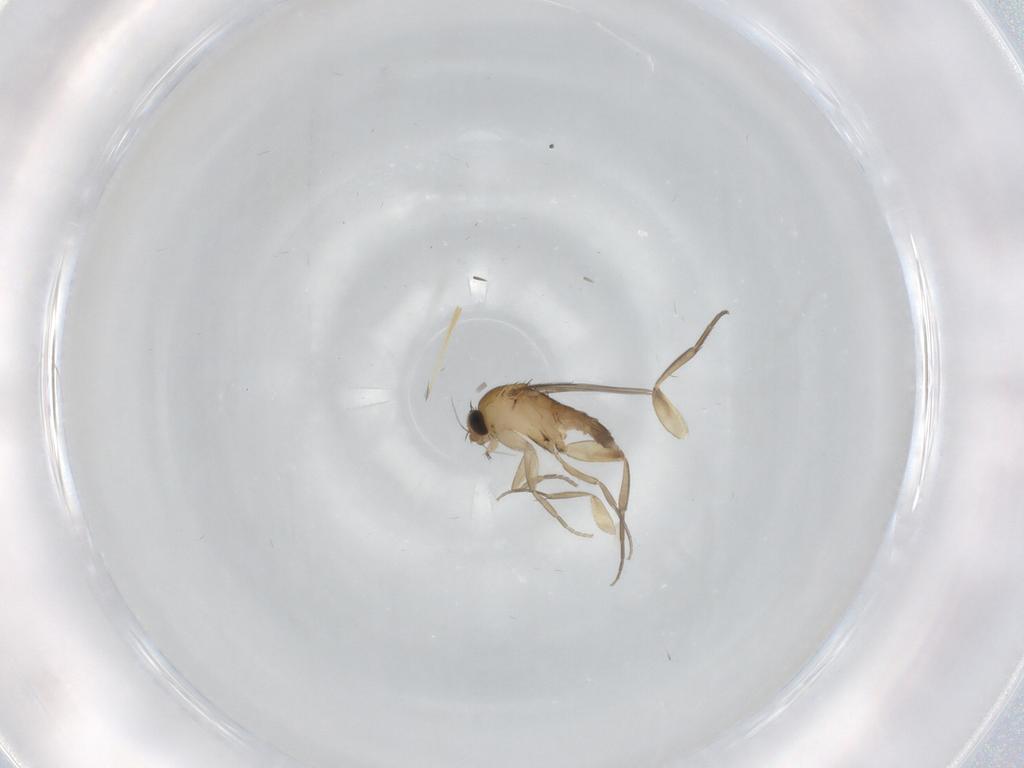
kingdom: Animalia
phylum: Arthropoda
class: Insecta
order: Diptera
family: Phoridae
